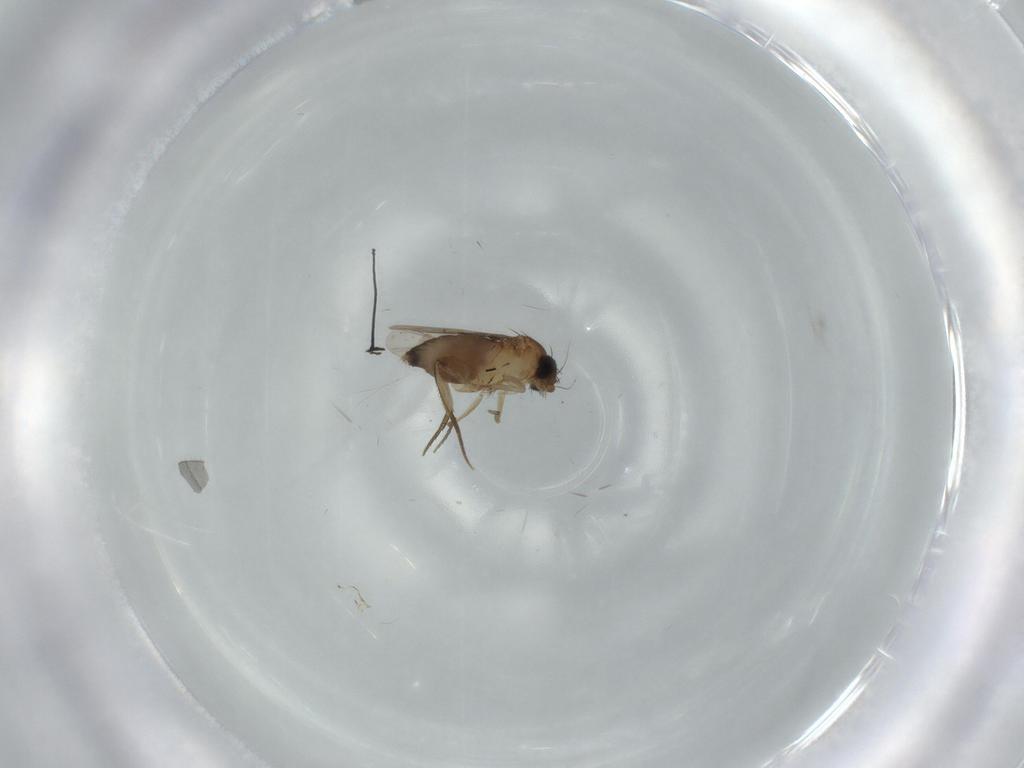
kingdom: Animalia
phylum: Arthropoda
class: Insecta
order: Diptera
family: Phoridae
